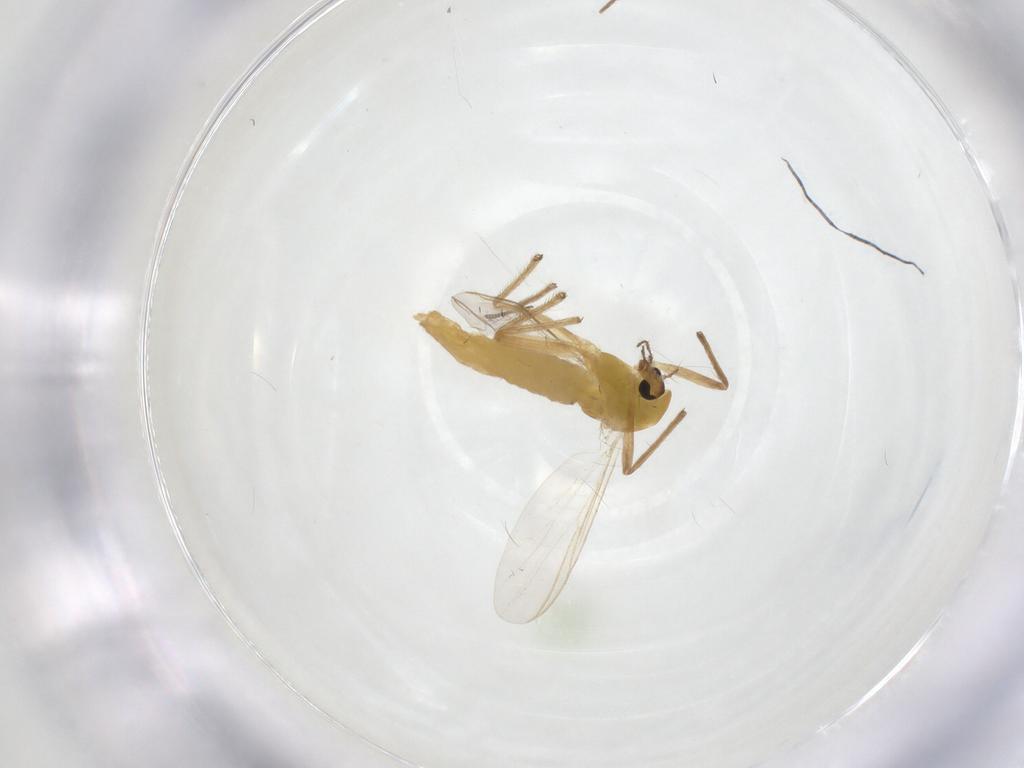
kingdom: Animalia
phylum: Arthropoda
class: Insecta
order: Diptera
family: Chironomidae
